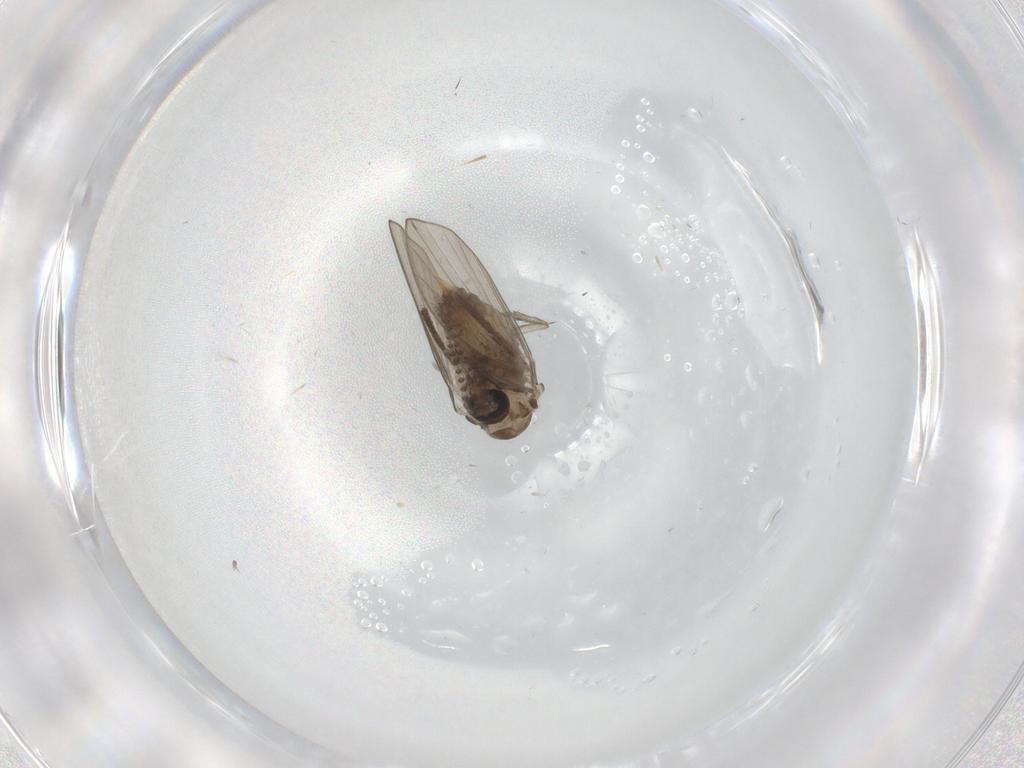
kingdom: Animalia
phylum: Arthropoda
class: Insecta
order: Diptera
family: Psychodidae
